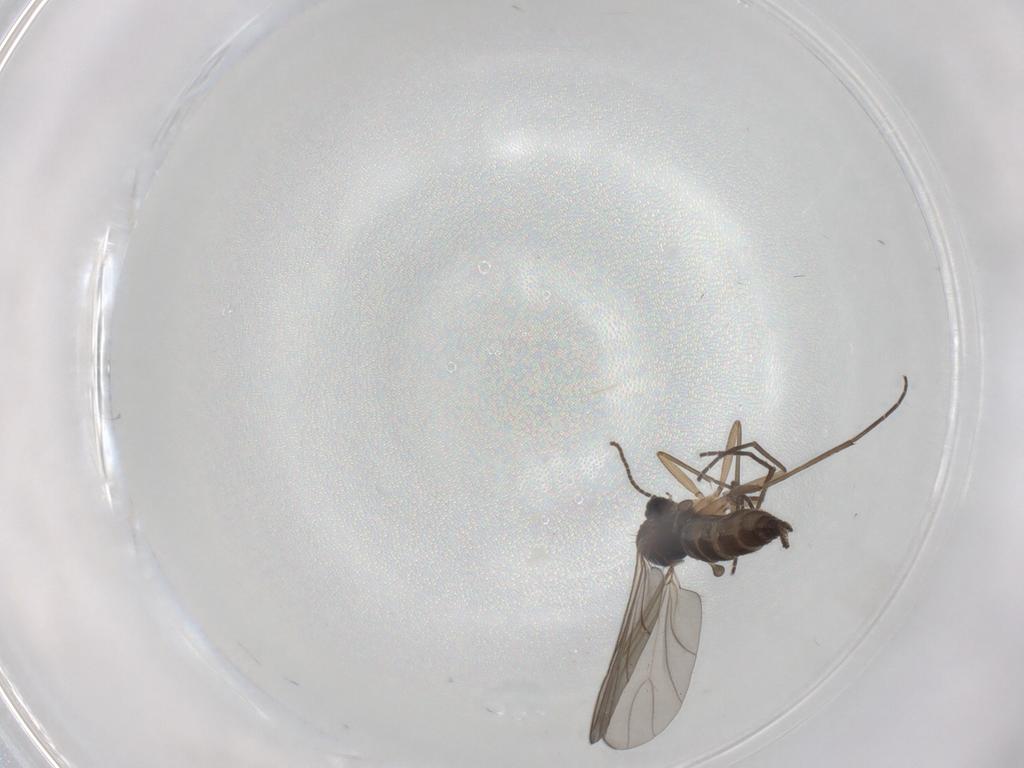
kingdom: Animalia
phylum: Arthropoda
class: Insecta
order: Diptera
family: Sciaridae
